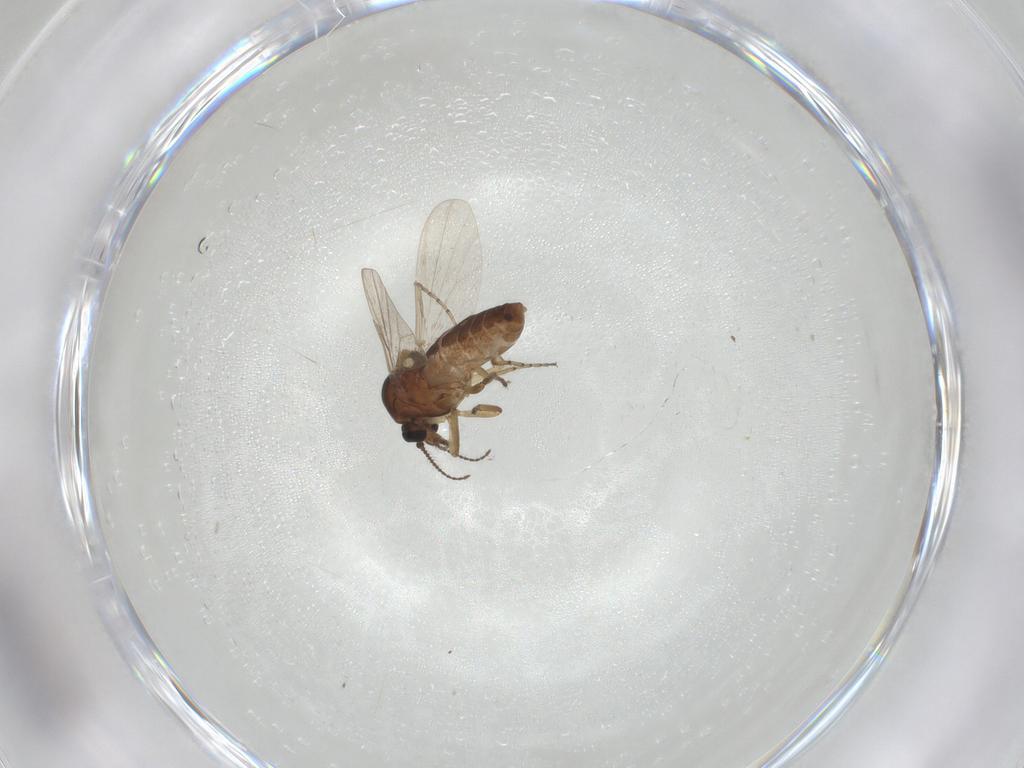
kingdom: Animalia
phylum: Arthropoda
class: Insecta
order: Diptera
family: Ceratopogonidae
